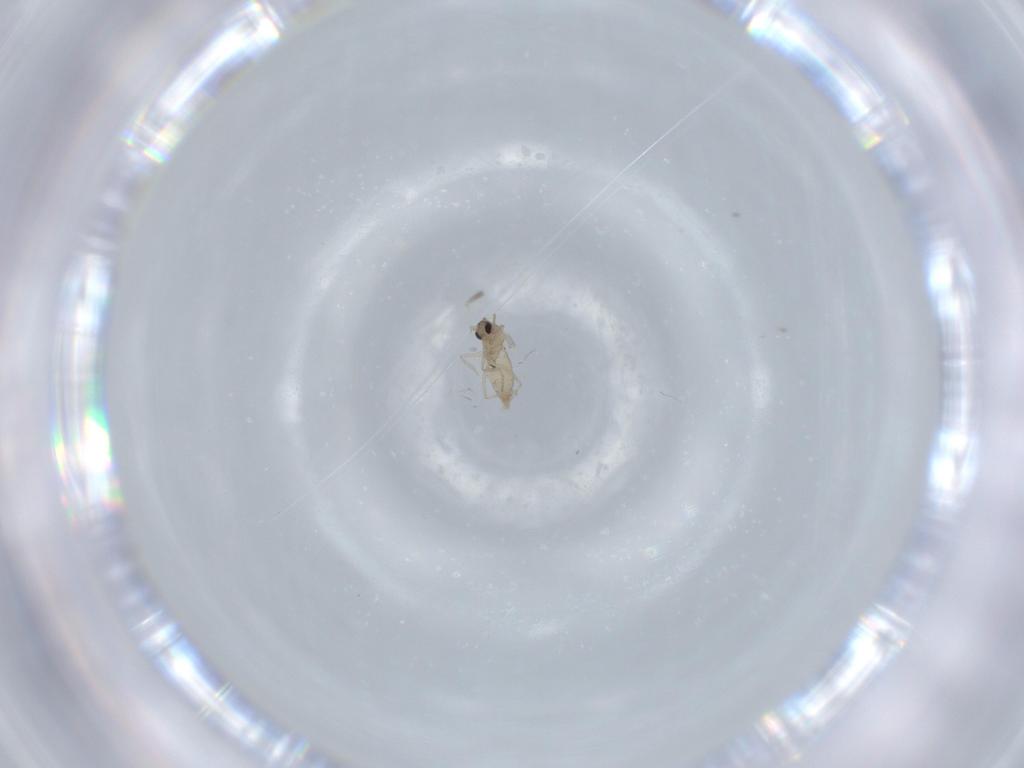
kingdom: Animalia
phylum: Arthropoda
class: Insecta
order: Diptera
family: Cecidomyiidae
